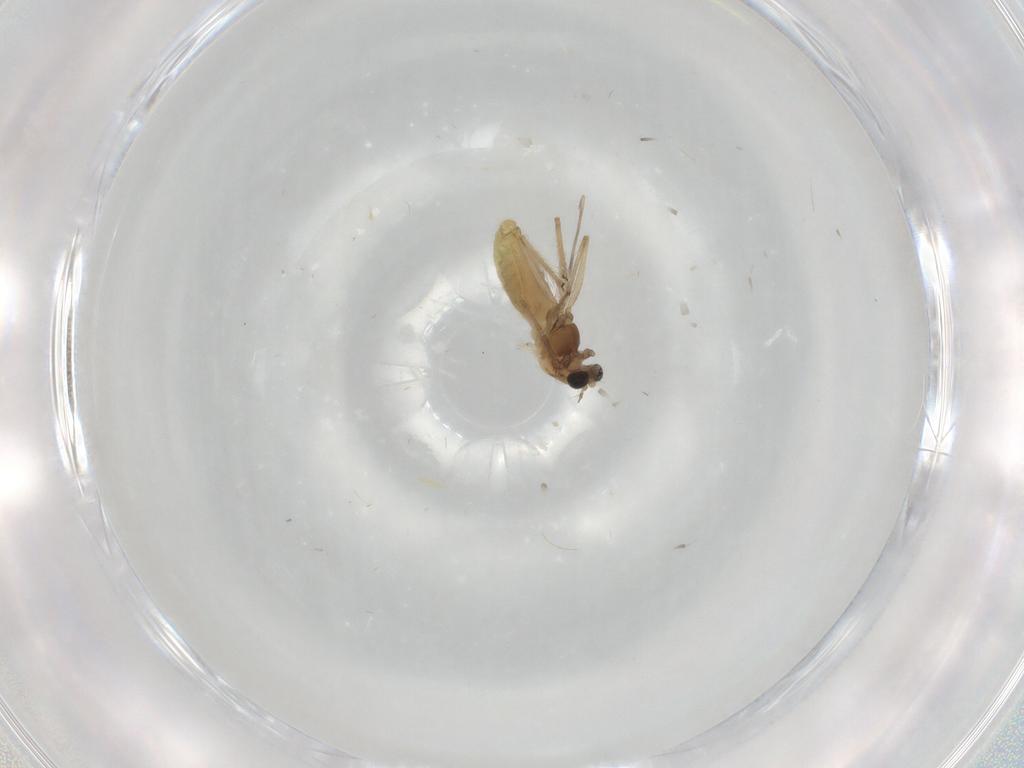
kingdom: Animalia
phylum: Arthropoda
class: Insecta
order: Diptera
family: Chironomidae
